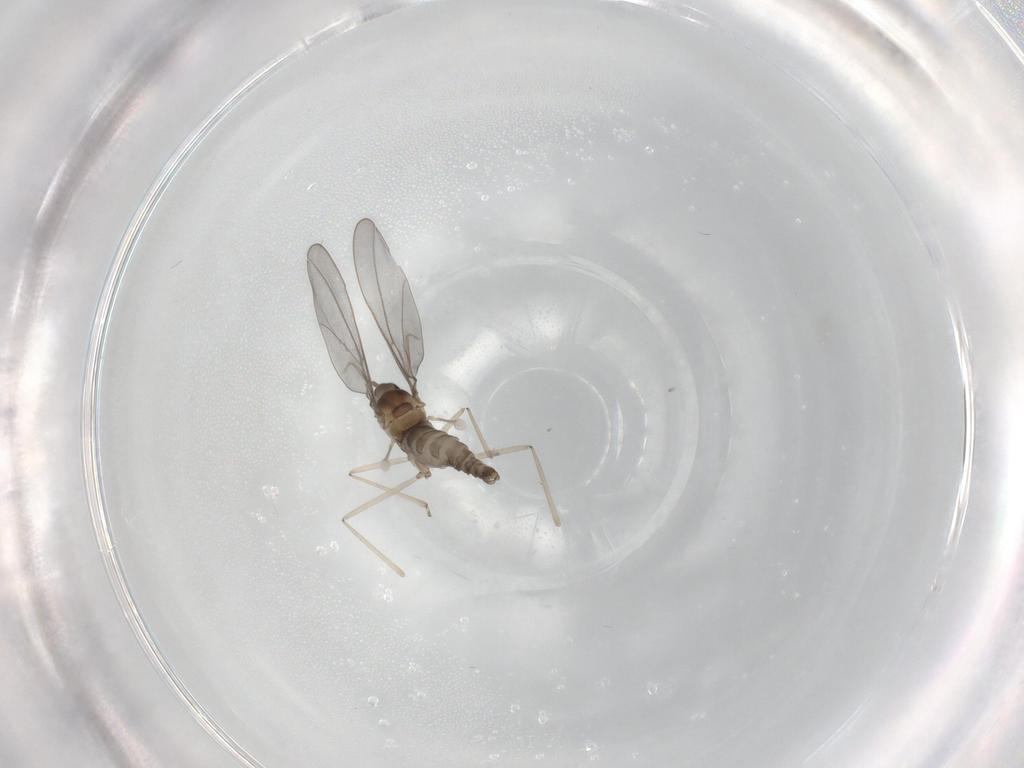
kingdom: Animalia
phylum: Arthropoda
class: Insecta
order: Diptera
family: Cecidomyiidae
